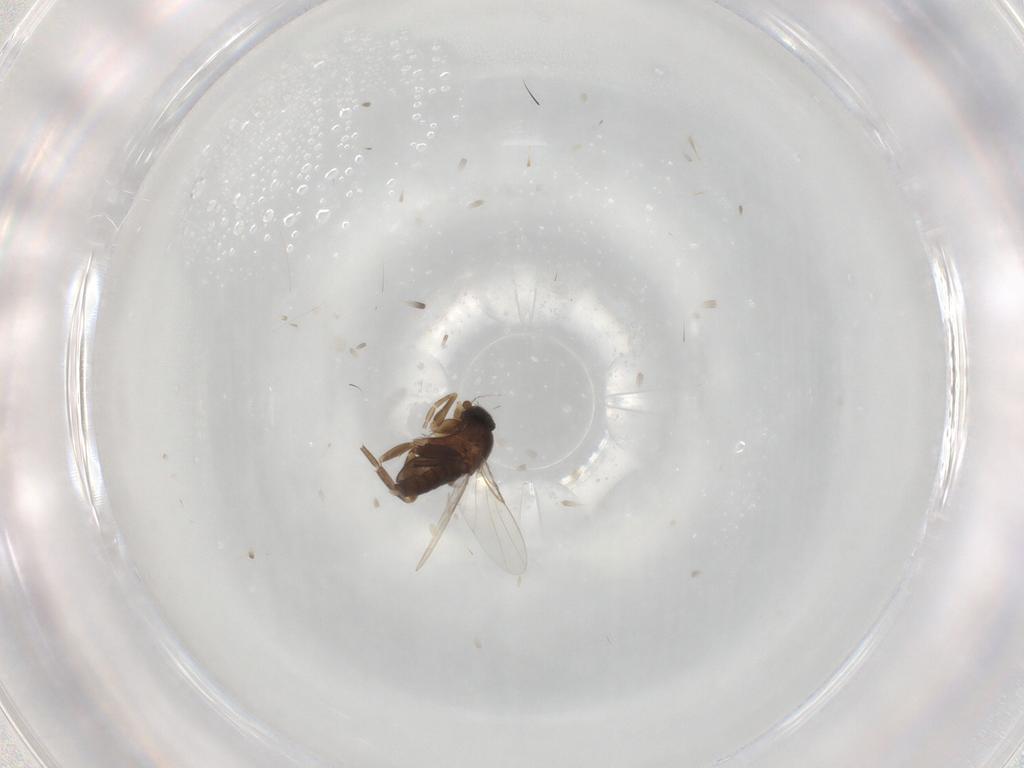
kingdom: Animalia
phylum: Arthropoda
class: Insecta
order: Diptera
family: Phoridae
